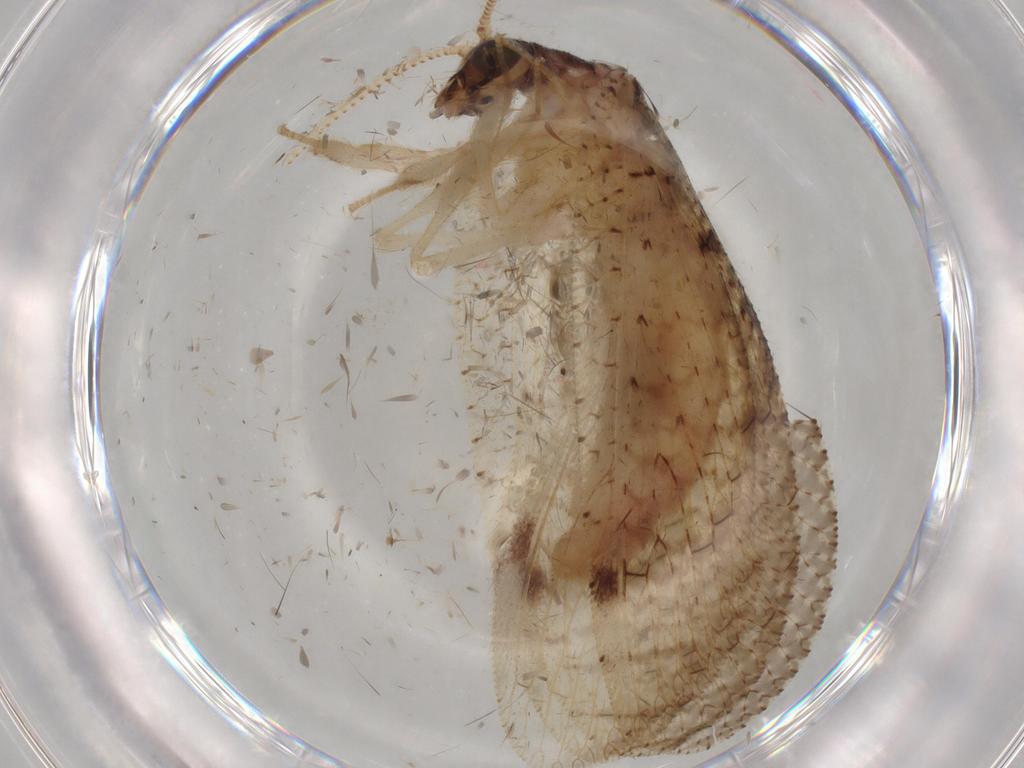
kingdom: Animalia
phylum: Arthropoda
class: Insecta
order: Neuroptera
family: Hemerobiidae
